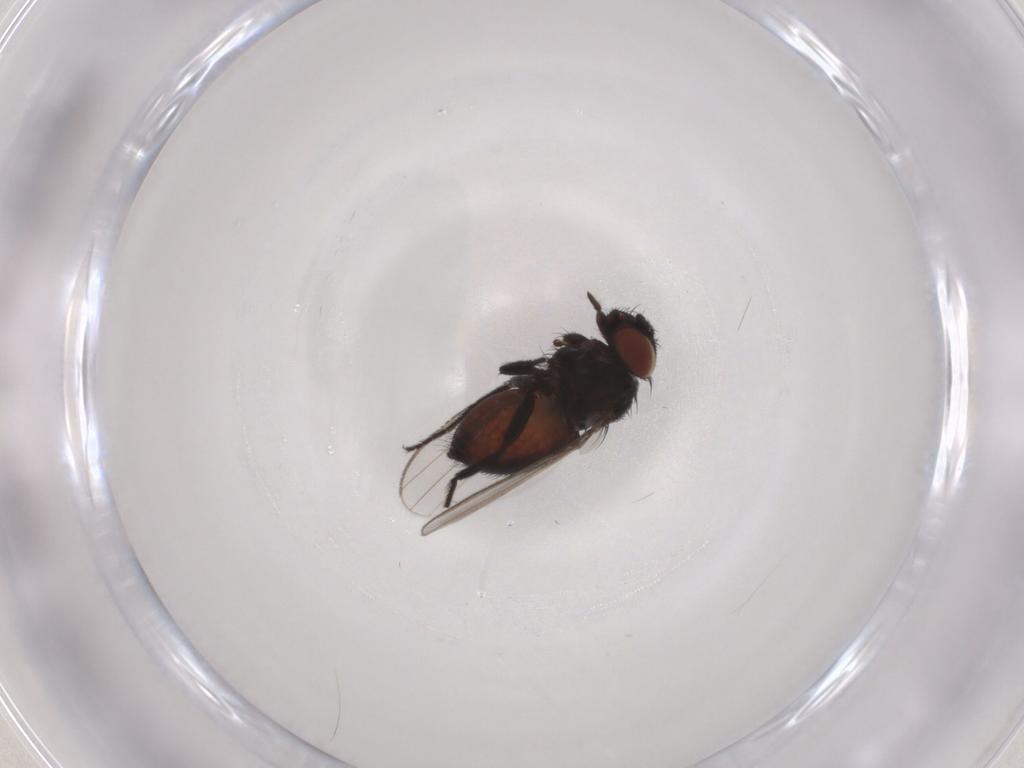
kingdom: Animalia
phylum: Arthropoda
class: Insecta
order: Diptera
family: Milichiidae
